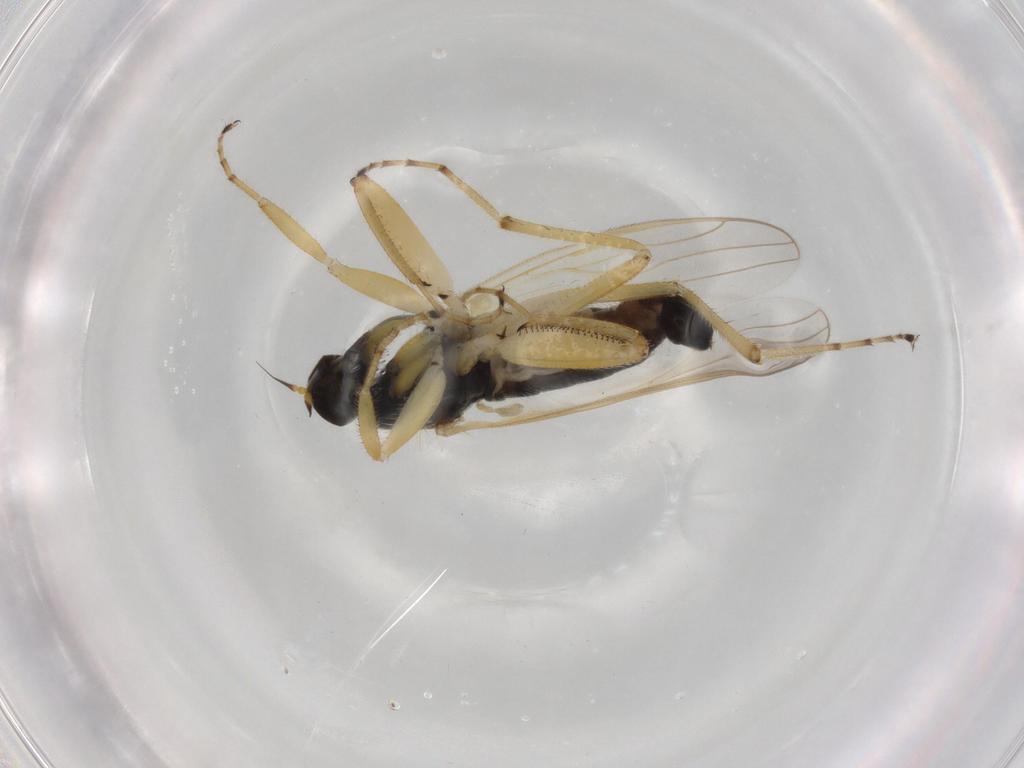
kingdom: Animalia
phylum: Arthropoda
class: Insecta
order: Diptera
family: Hybotidae
